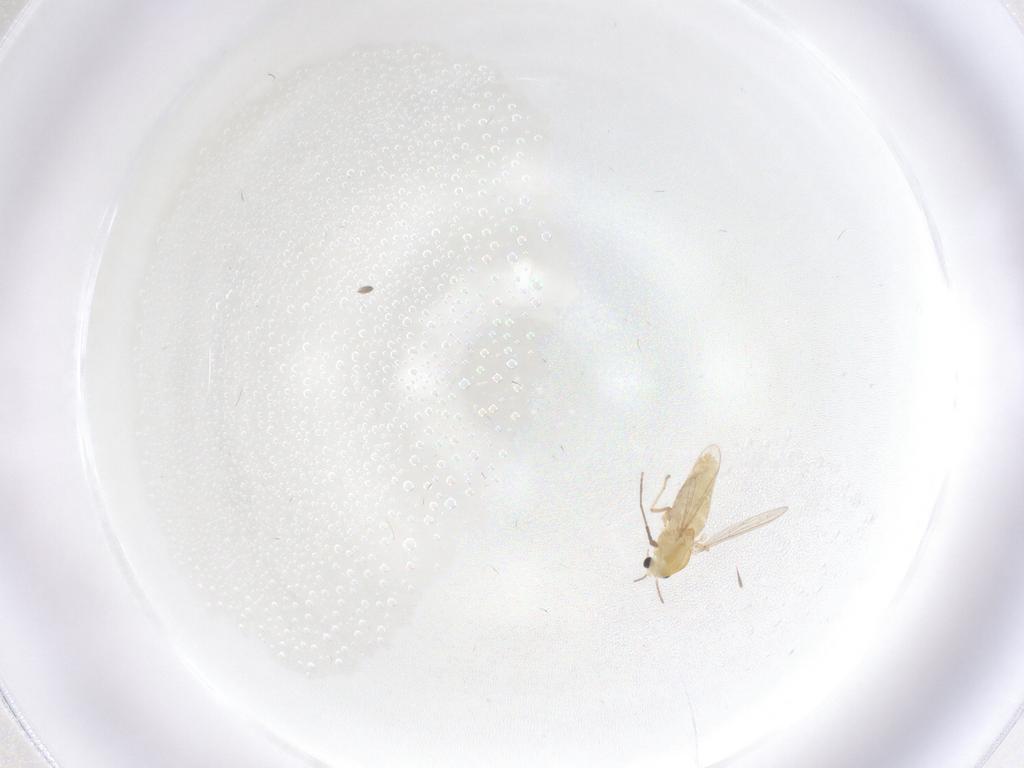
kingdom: Animalia
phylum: Arthropoda
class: Insecta
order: Diptera
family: Chironomidae
